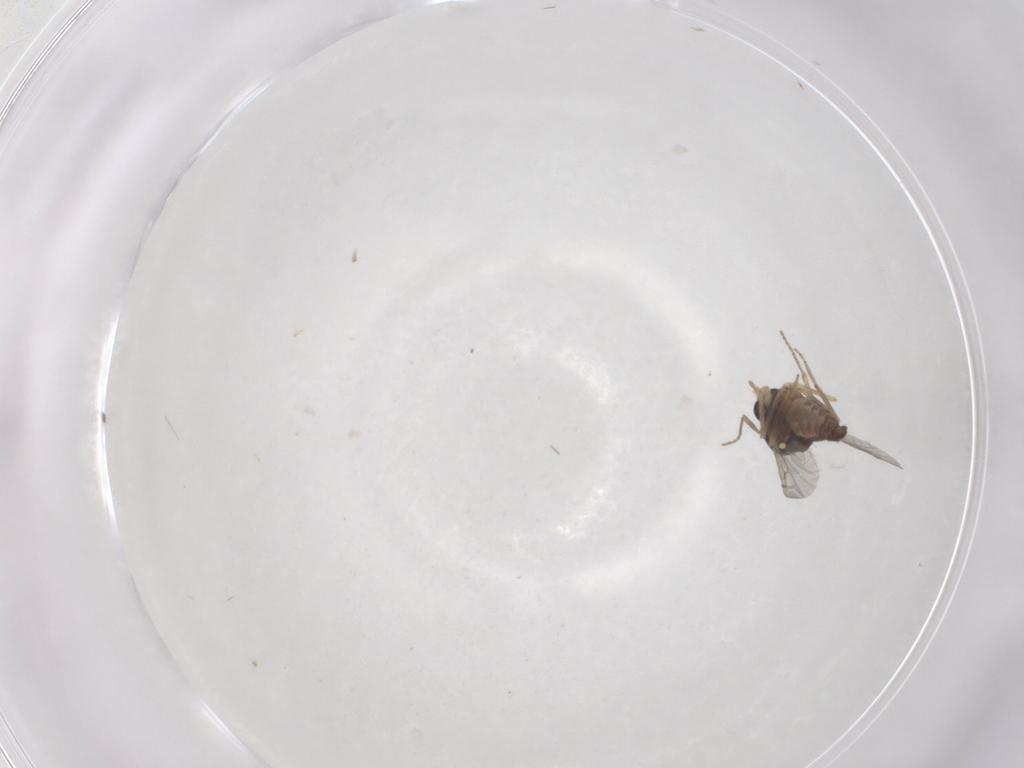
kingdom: Animalia
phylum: Arthropoda
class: Insecta
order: Diptera
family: Ceratopogonidae
